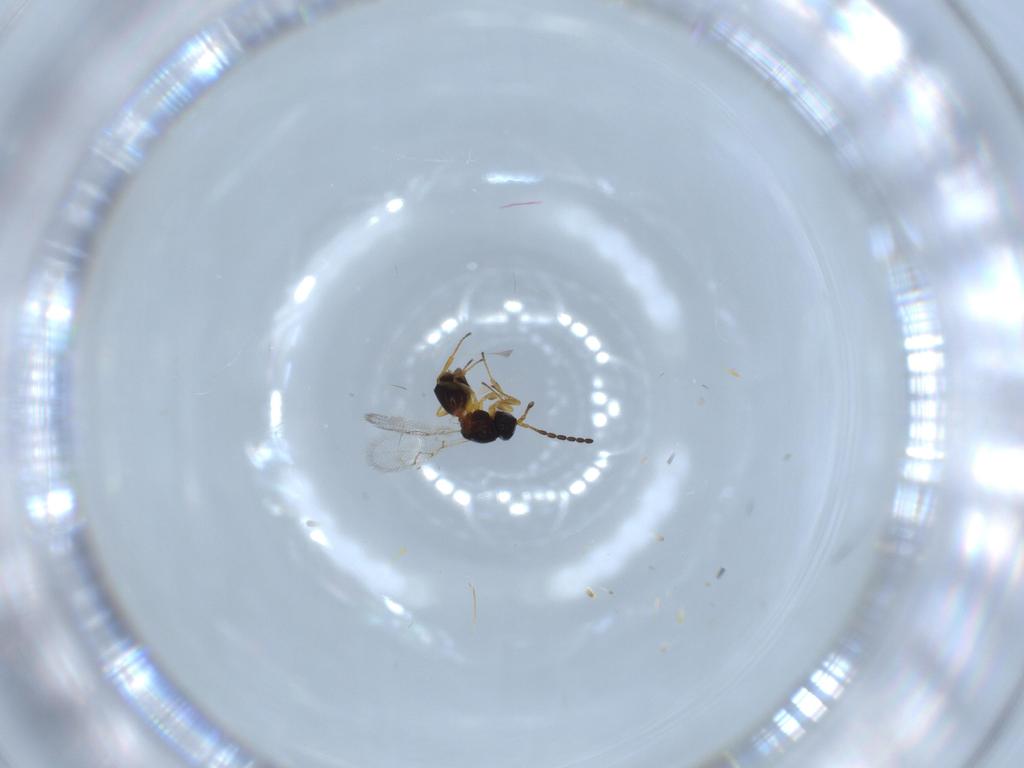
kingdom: Animalia
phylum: Arthropoda
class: Insecta
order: Hymenoptera
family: Figitidae
